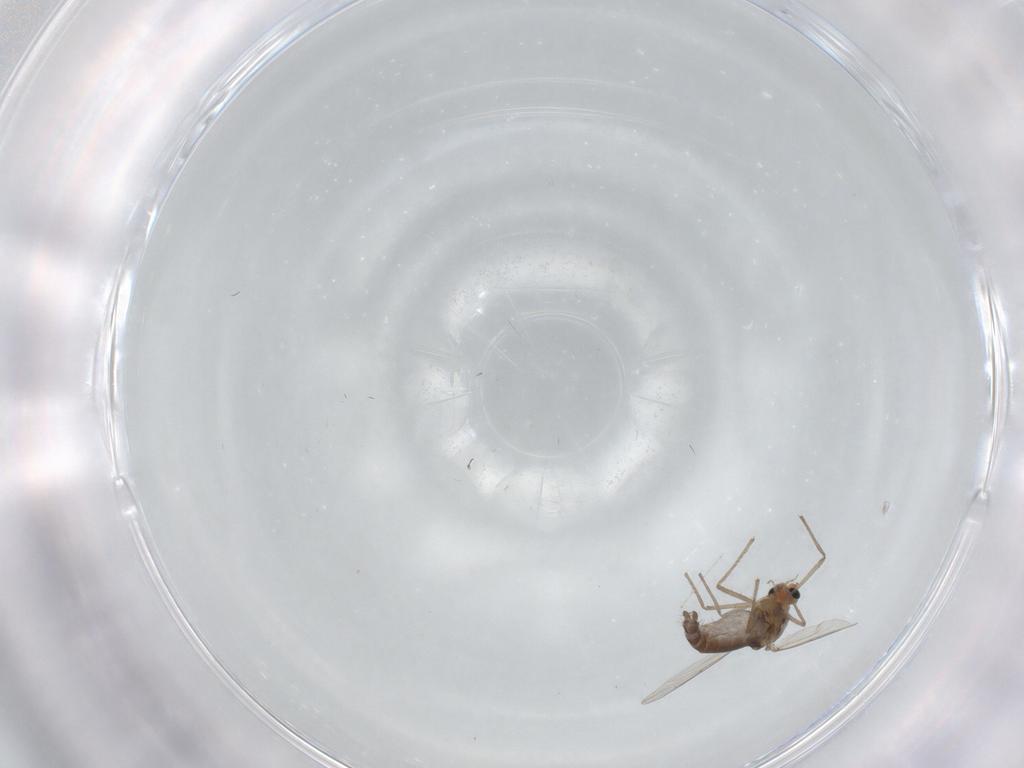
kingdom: Animalia
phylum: Arthropoda
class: Insecta
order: Diptera
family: Chironomidae
